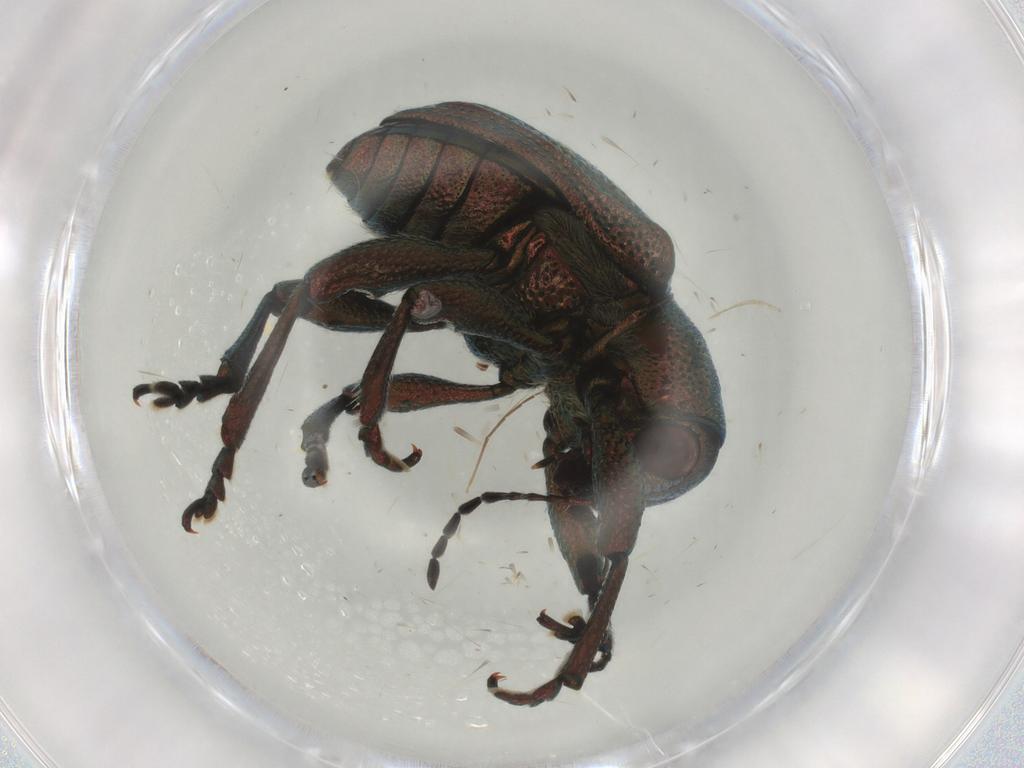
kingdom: Animalia
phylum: Arthropoda
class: Insecta
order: Coleoptera
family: Chrysomelidae
